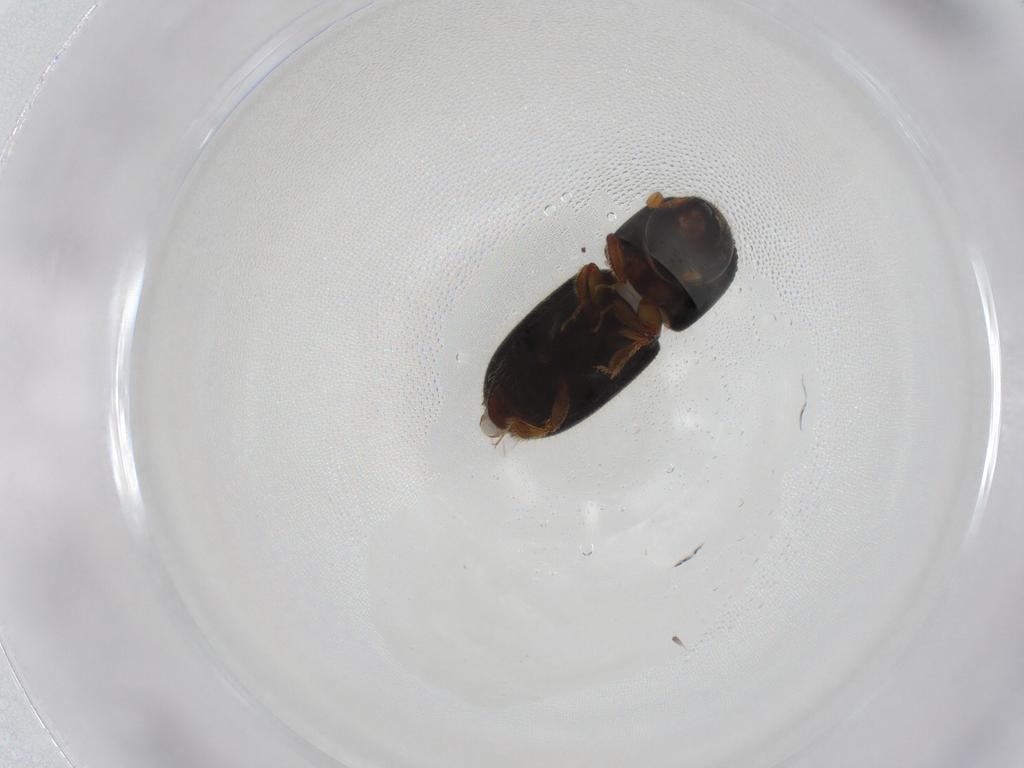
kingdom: Animalia
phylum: Arthropoda
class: Insecta
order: Coleoptera
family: Curculionidae
